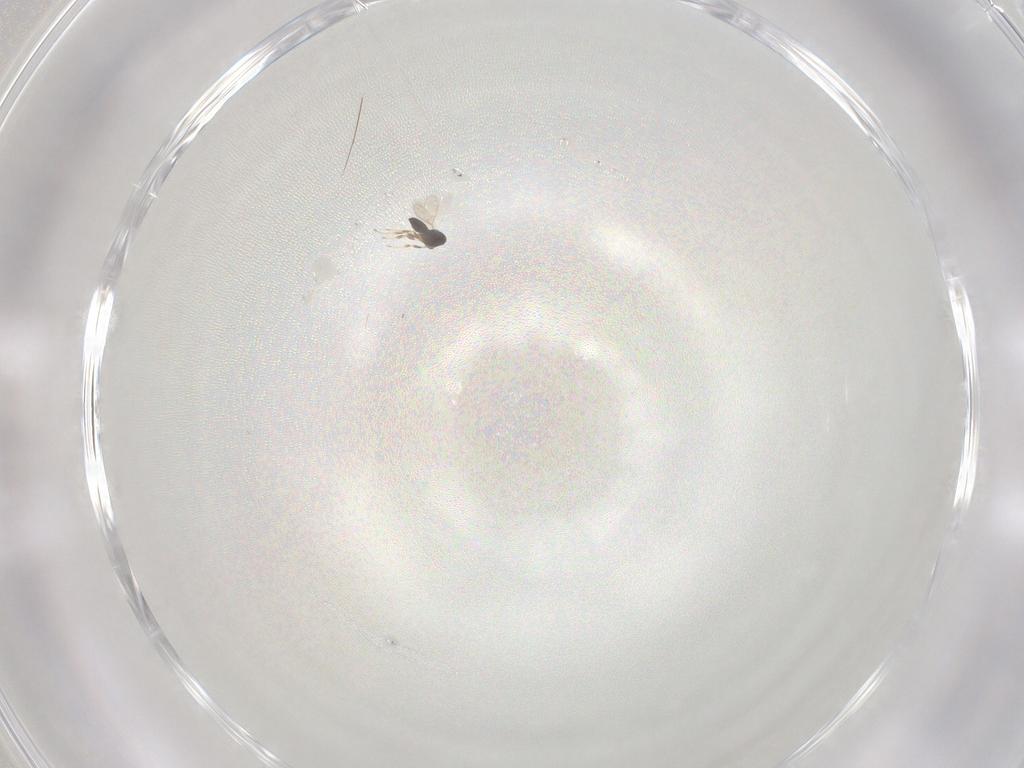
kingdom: Animalia
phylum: Arthropoda
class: Insecta
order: Hymenoptera
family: Scelionidae
